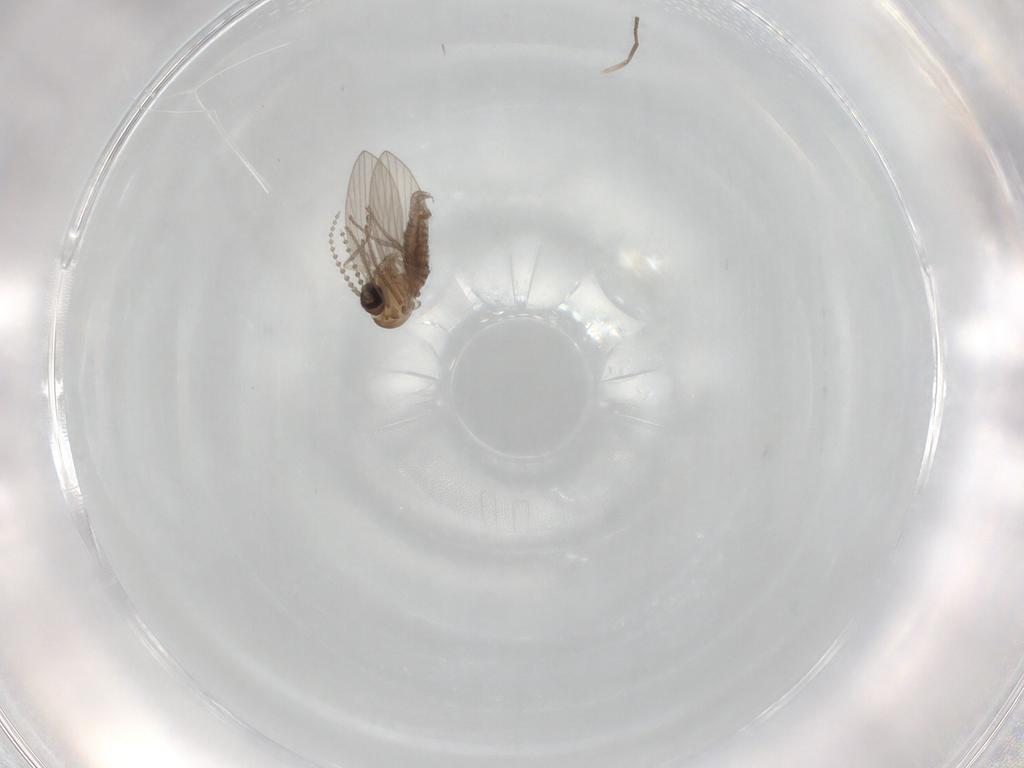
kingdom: Animalia
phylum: Arthropoda
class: Insecta
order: Diptera
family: Psychodidae
